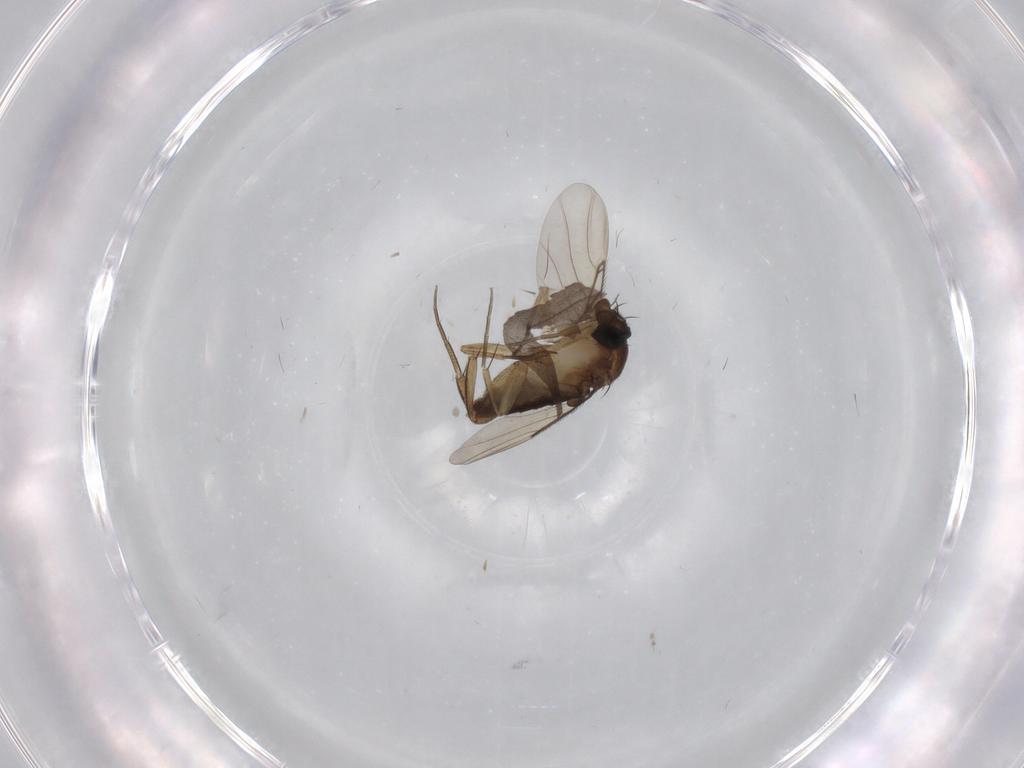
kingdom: Animalia
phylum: Arthropoda
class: Insecta
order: Diptera
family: Phoridae
